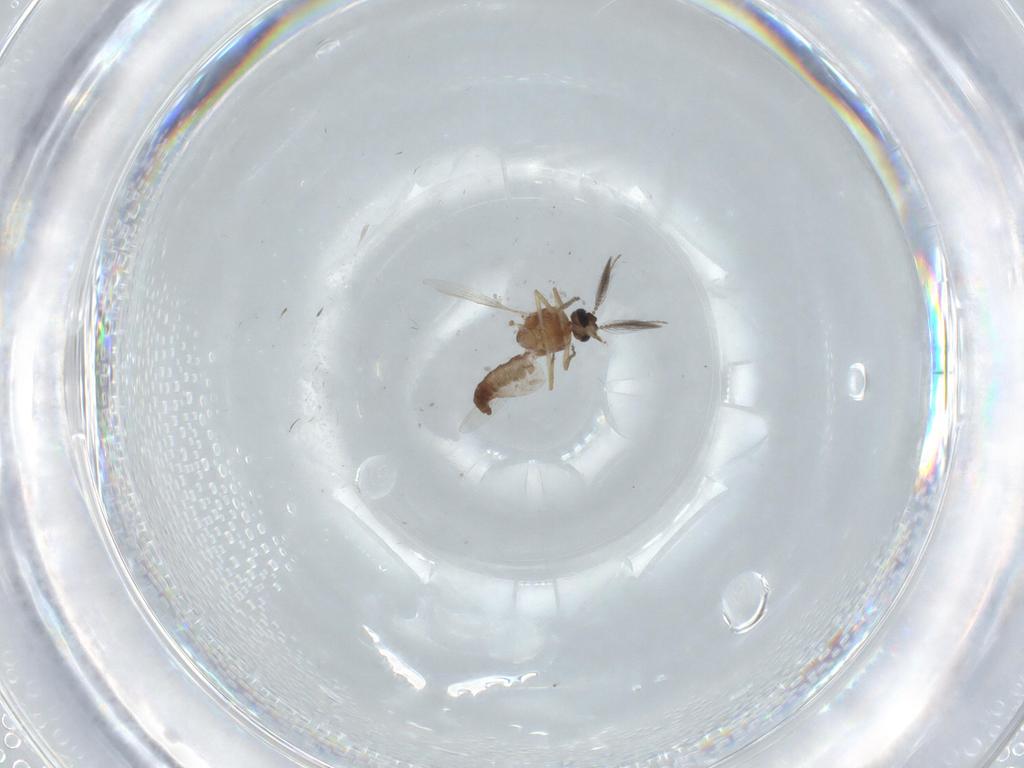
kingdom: Animalia
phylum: Arthropoda
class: Insecta
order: Diptera
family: Ceratopogonidae
